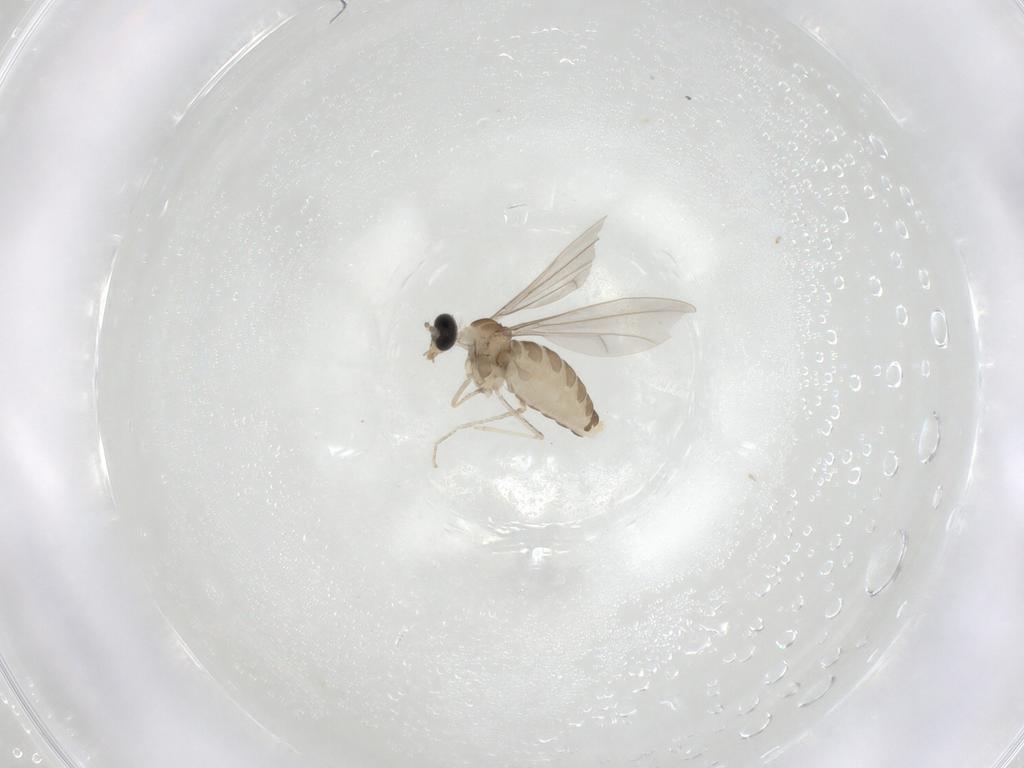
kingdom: Animalia
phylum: Arthropoda
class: Insecta
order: Diptera
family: Cecidomyiidae
